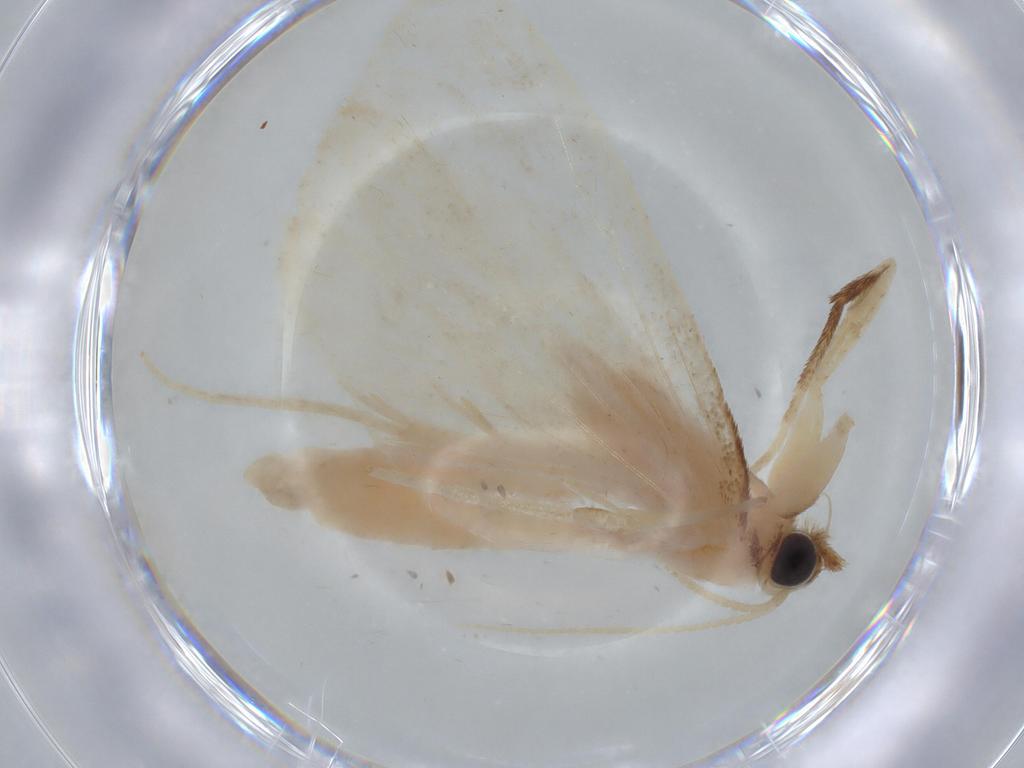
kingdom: Animalia
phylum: Arthropoda
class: Insecta
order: Lepidoptera
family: Crambidae
